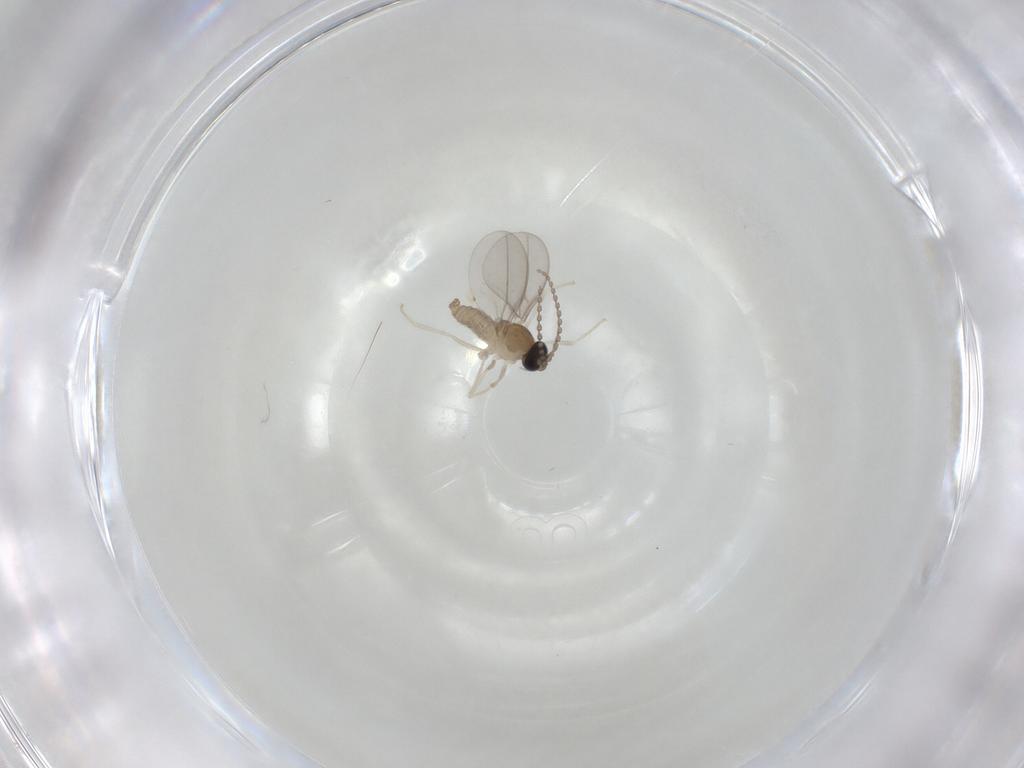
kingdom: Animalia
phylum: Arthropoda
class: Insecta
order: Diptera
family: Cecidomyiidae
